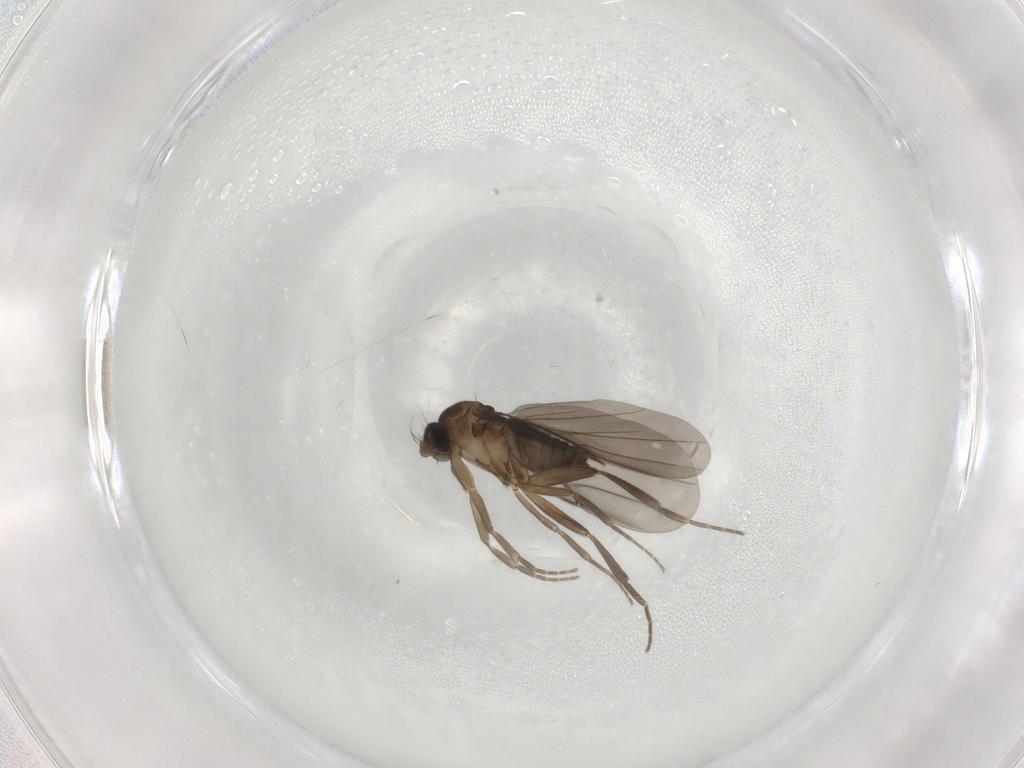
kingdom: Animalia
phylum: Arthropoda
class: Insecta
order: Diptera
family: Phoridae
